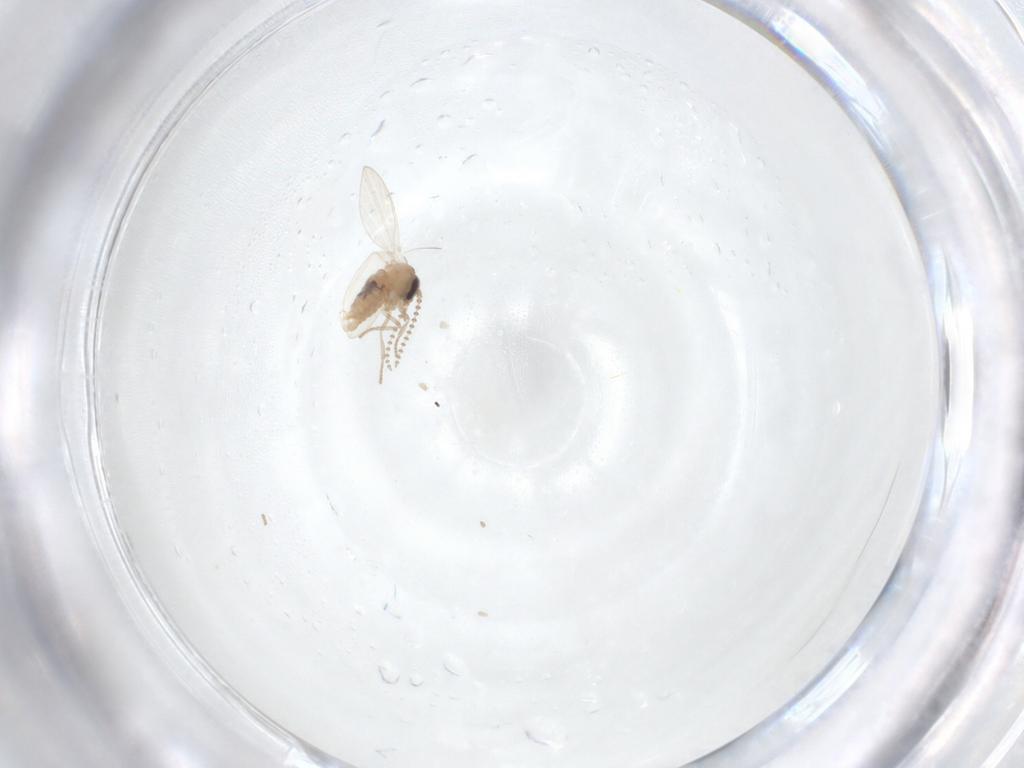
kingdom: Animalia
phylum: Arthropoda
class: Insecta
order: Diptera
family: Psychodidae
